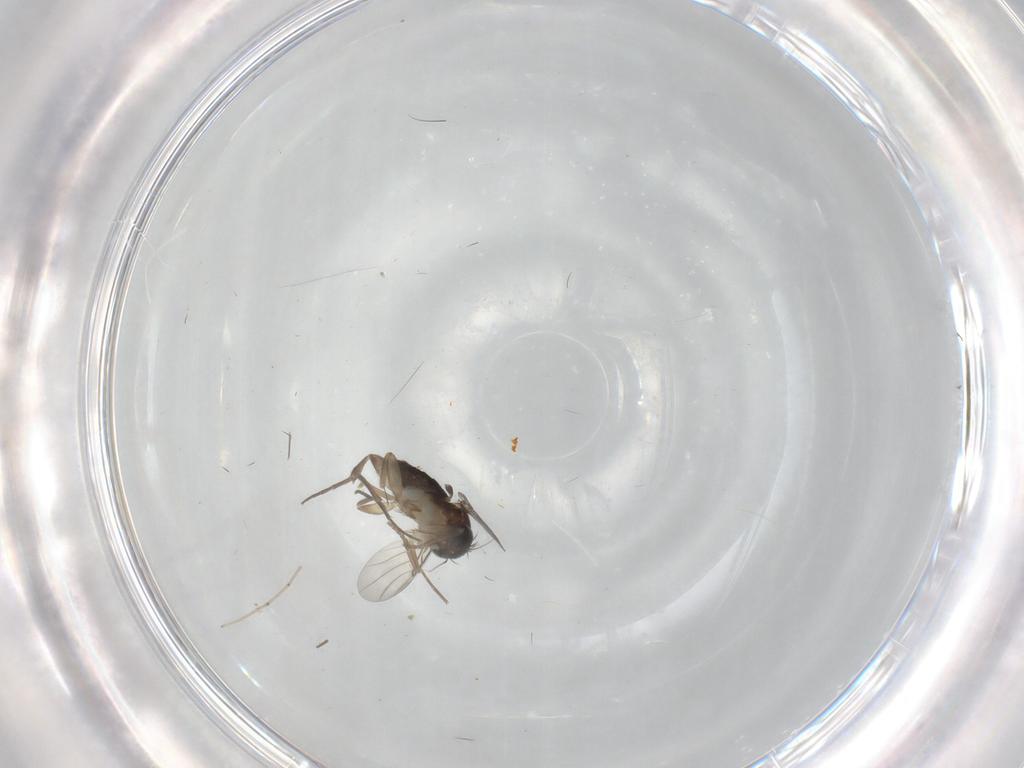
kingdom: Animalia
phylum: Arthropoda
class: Insecta
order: Diptera
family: Cecidomyiidae
